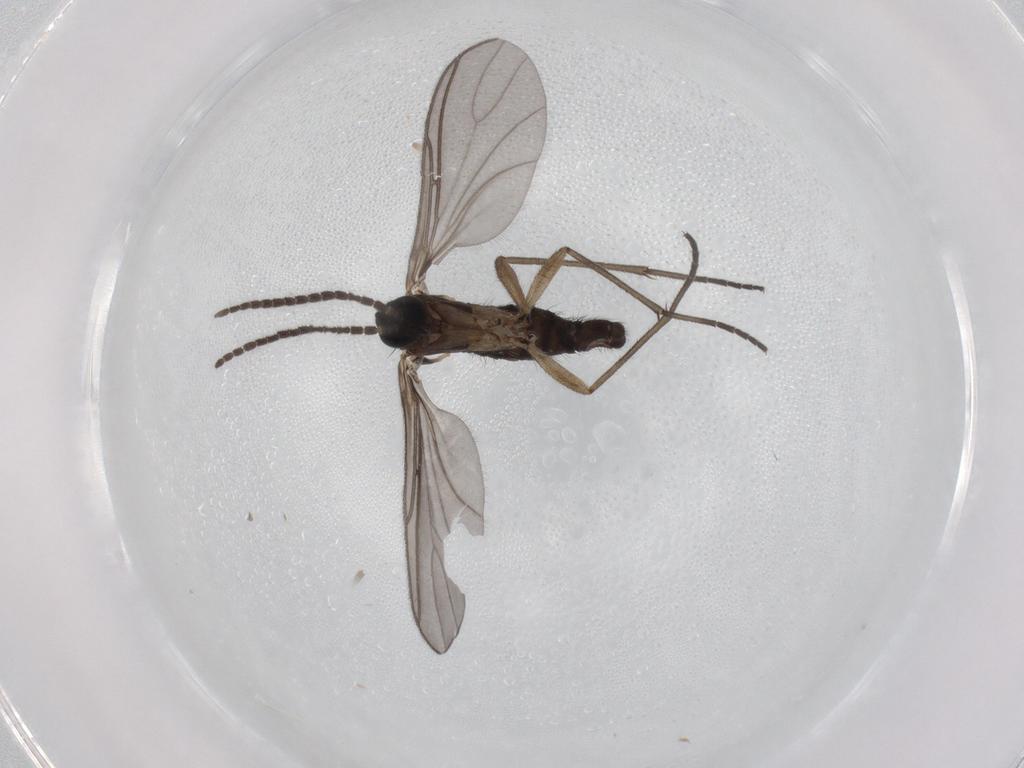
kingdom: Animalia
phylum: Arthropoda
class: Insecta
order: Diptera
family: Sciaridae
